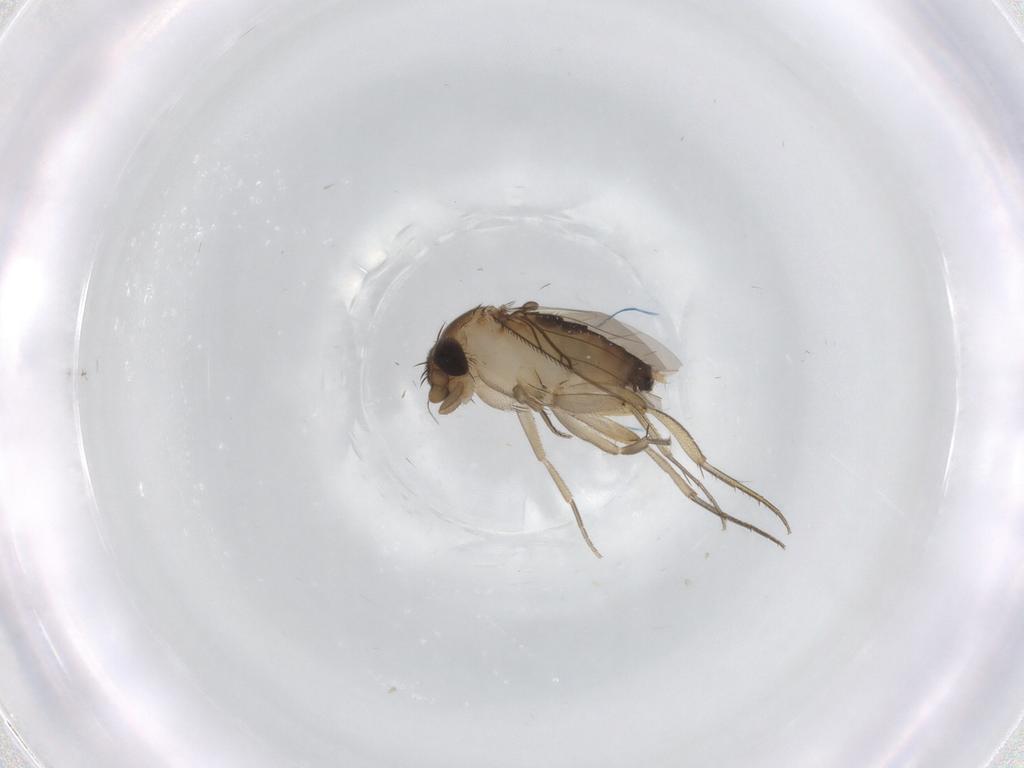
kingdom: Animalia
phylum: Arthropoda
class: Insecta
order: Diptera
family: Phoridae
